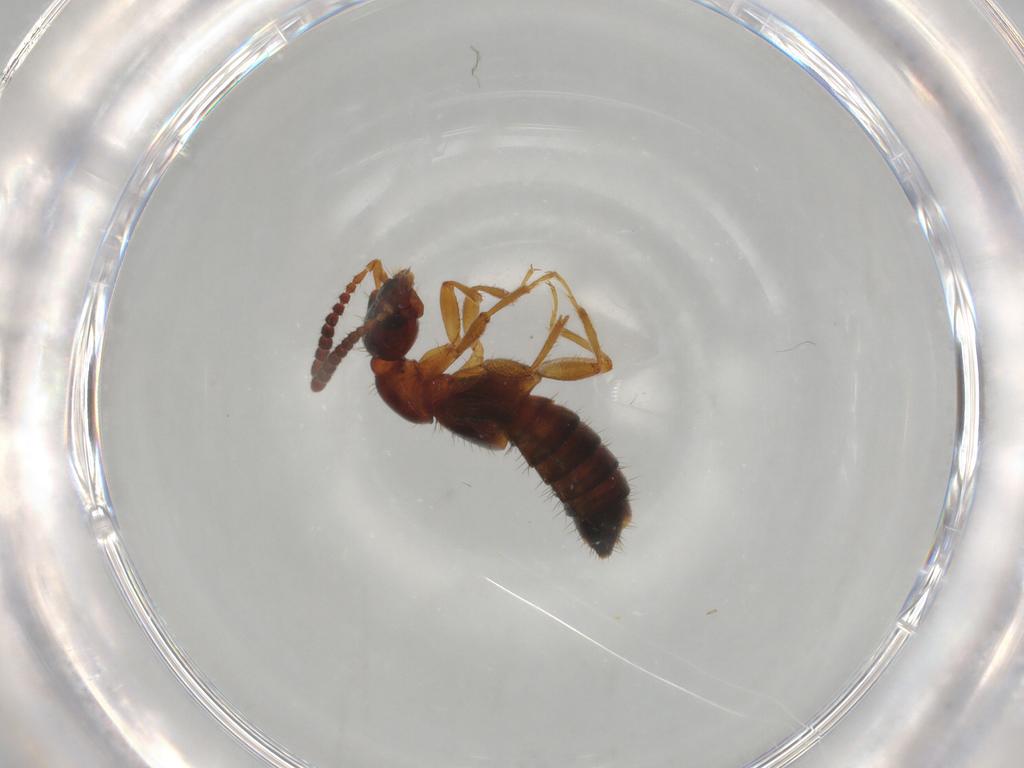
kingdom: Animalia
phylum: Arthropoda
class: Insecta
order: Coleoptera
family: Staphylinidae
